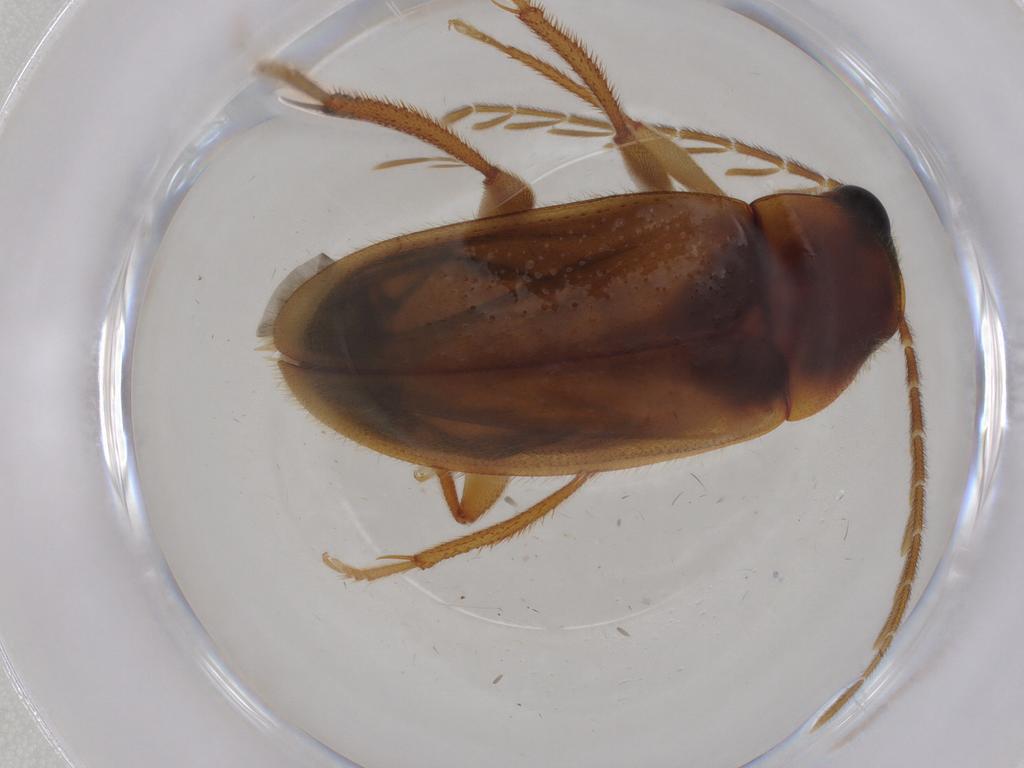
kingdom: Animalia
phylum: Arthropoda
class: Insecta
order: Coleoptera
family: Ptilodactylidae
